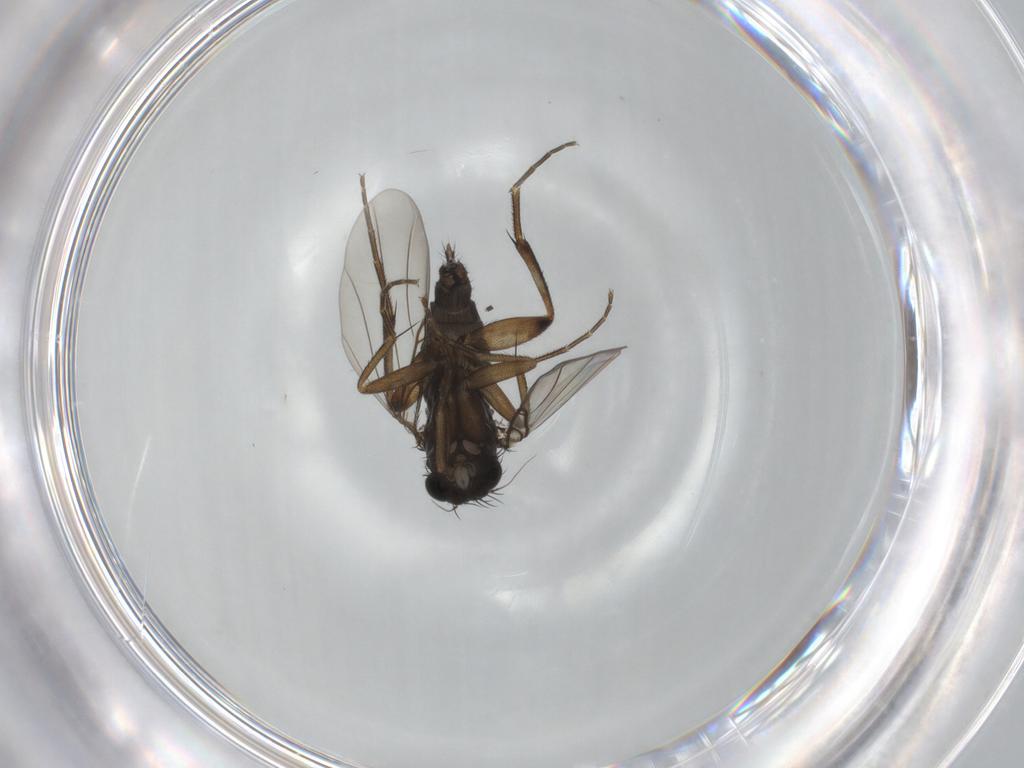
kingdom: Animalia
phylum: Arthropoda
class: Insecta
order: Diptera
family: Phoridae
